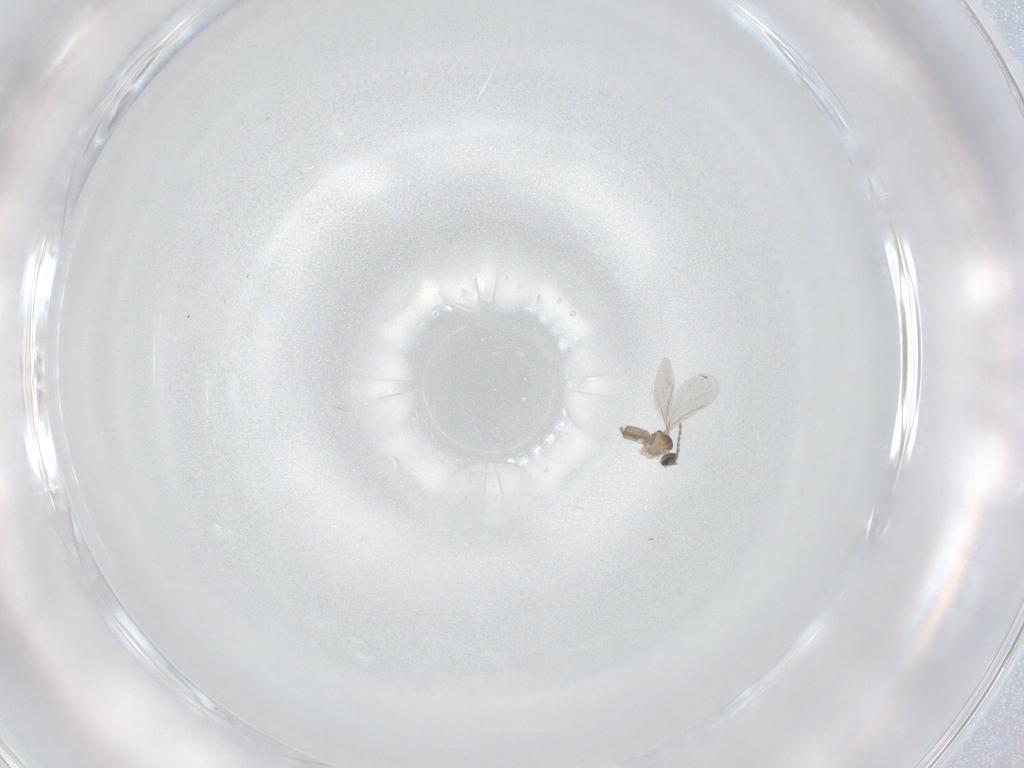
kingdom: Animalia
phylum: Arthropoda
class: Insecta
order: Diptera
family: Cecidomyiidae
